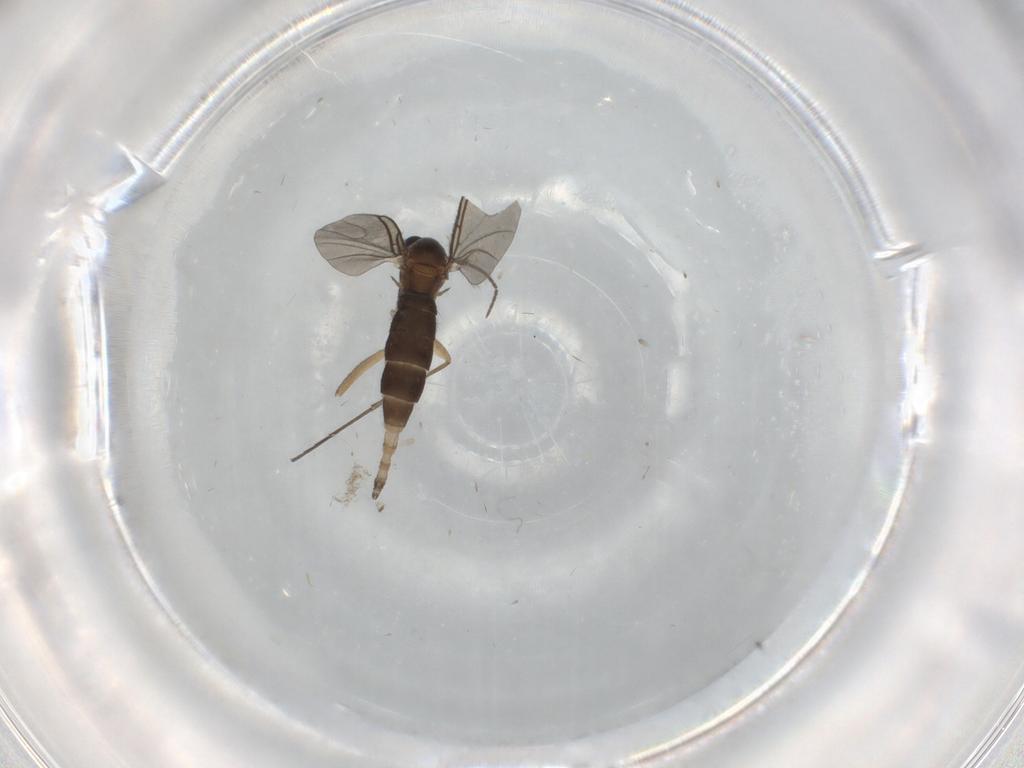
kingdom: Animalia
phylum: Arthropoda
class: Insecta
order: Diptera
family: Sciaridae
